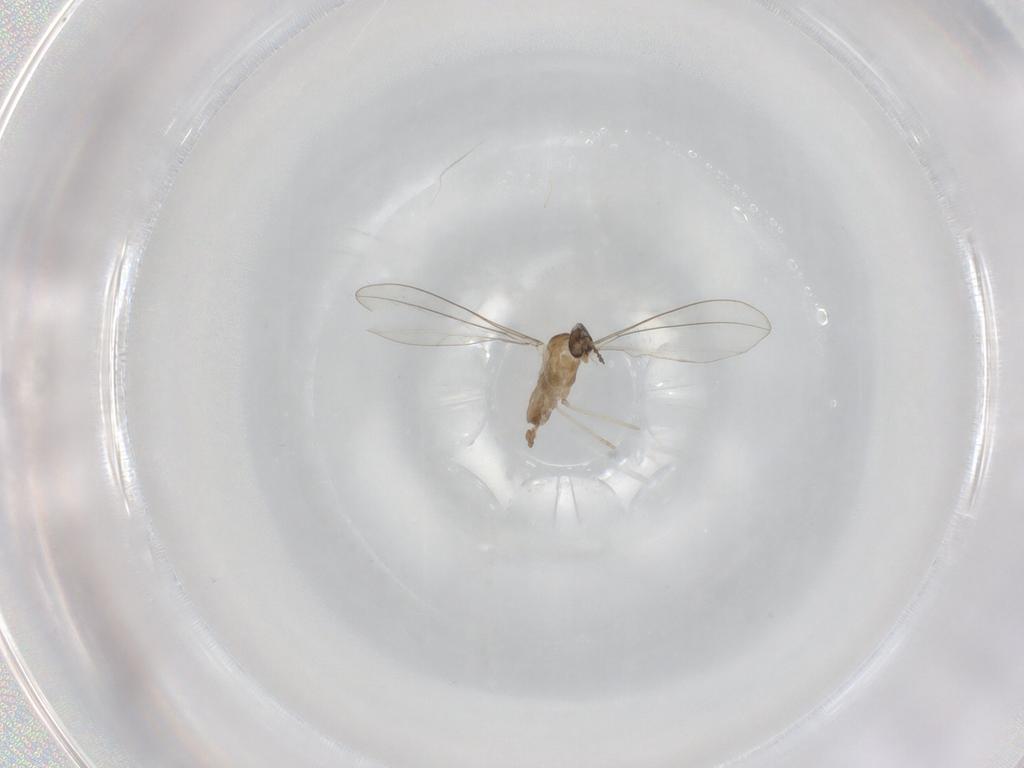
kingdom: Animalia
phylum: Arthropoda
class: Insecta
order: Diptera
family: Cecidomyiidae
